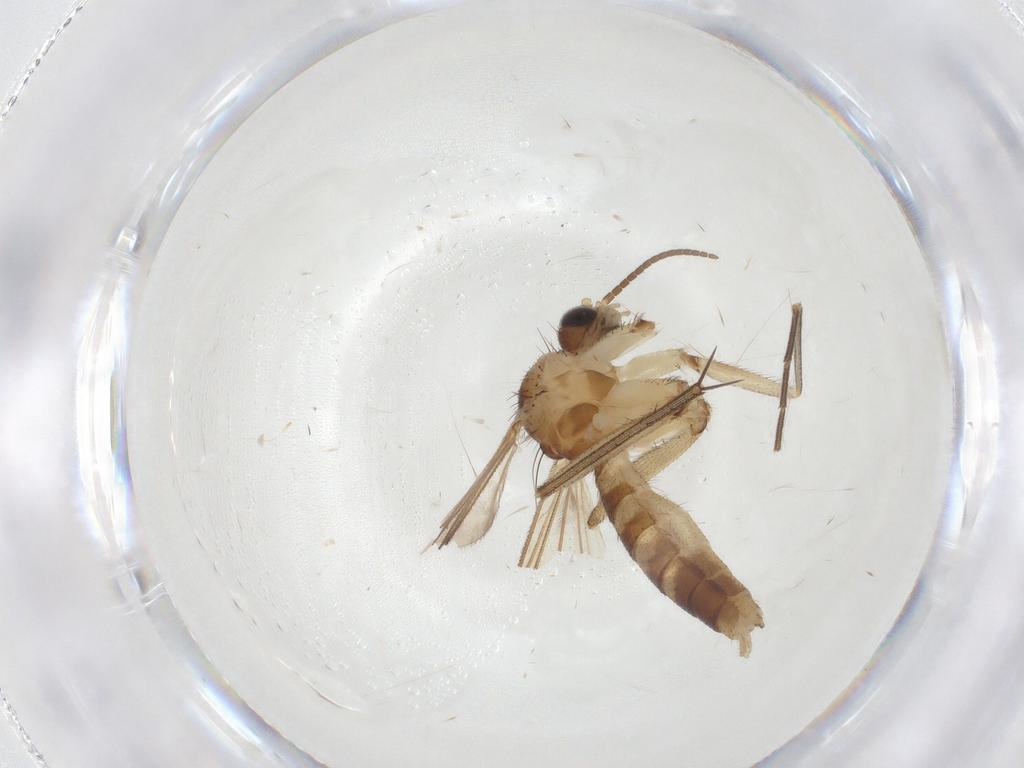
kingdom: Animalia
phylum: Arthropoda
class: Insecta
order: Diptera
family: Mycetophilidae
